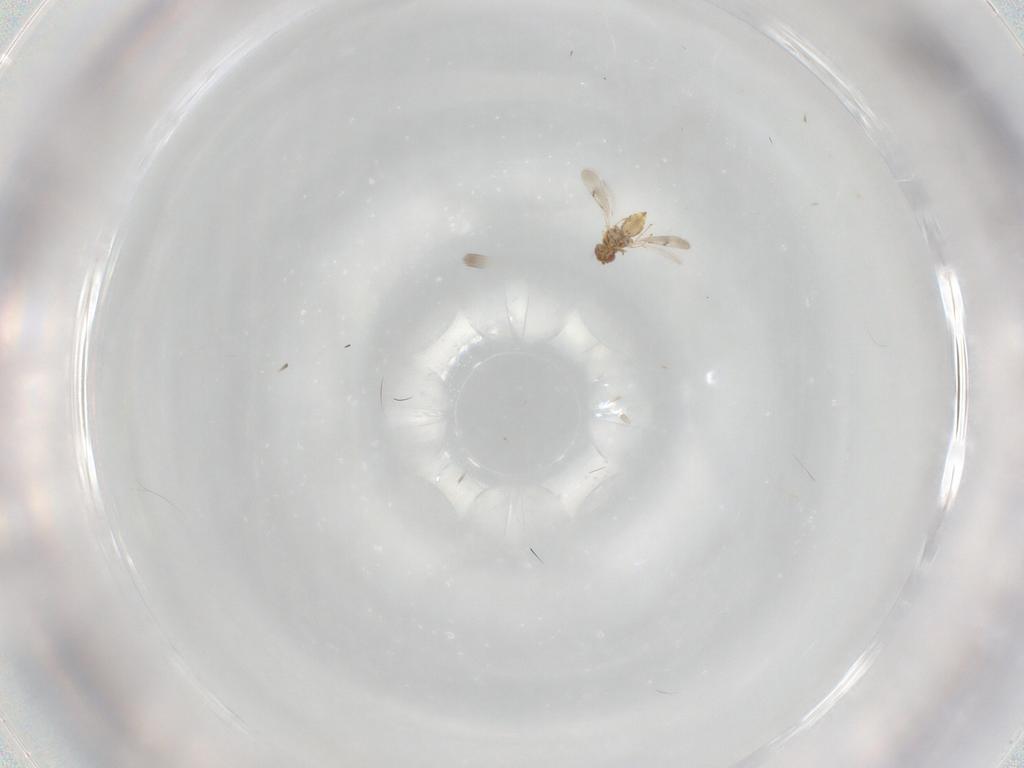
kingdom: Animalia
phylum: Arthropoda
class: Insecta
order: Hymenoptera
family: Eulophidae
